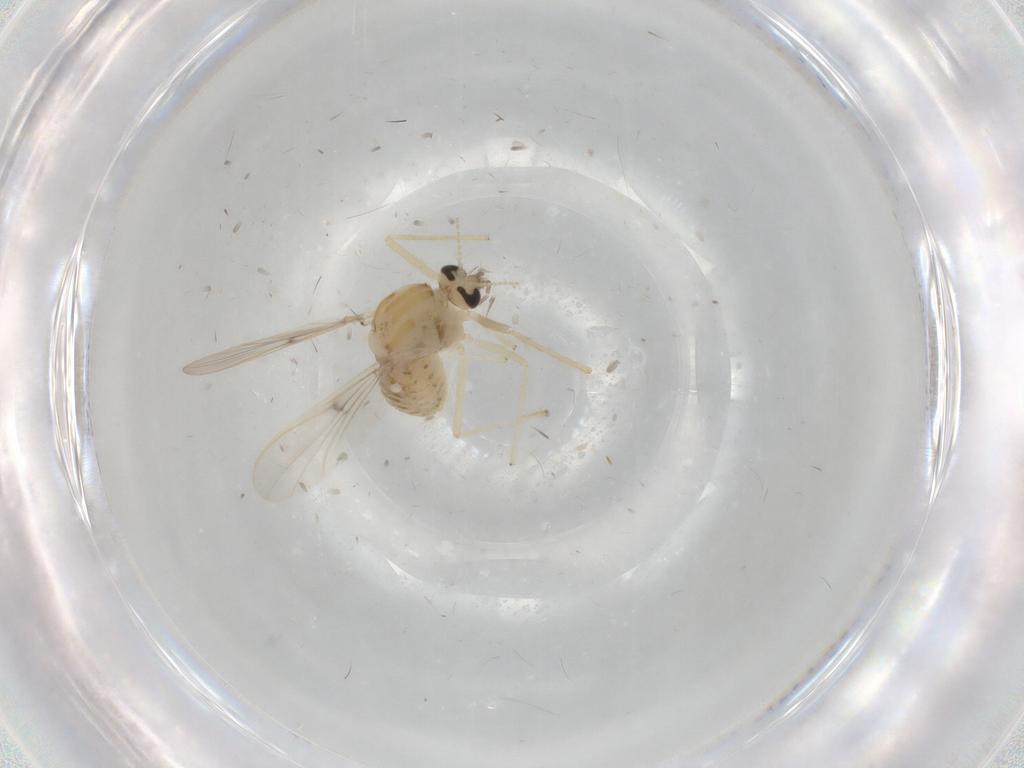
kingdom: Animalia
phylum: Arthropoda
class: Insecta
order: Diptera
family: Chironomidae
